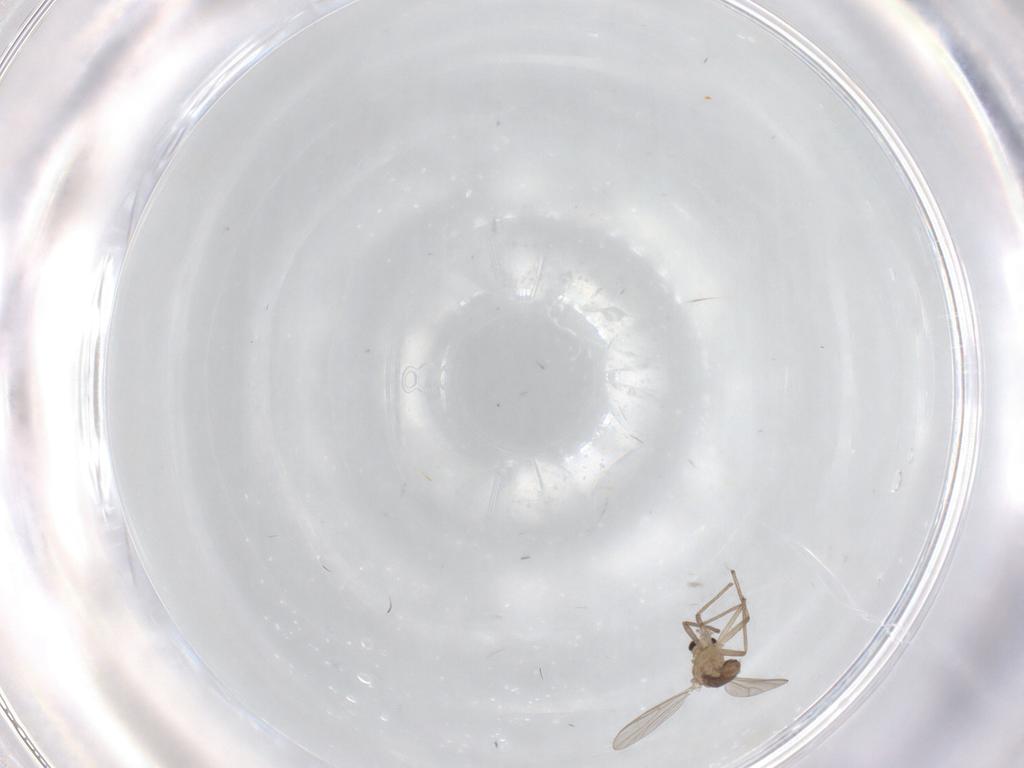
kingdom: Animalia
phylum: Arthropoda
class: Insecta
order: Diptera
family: Chironomidae
